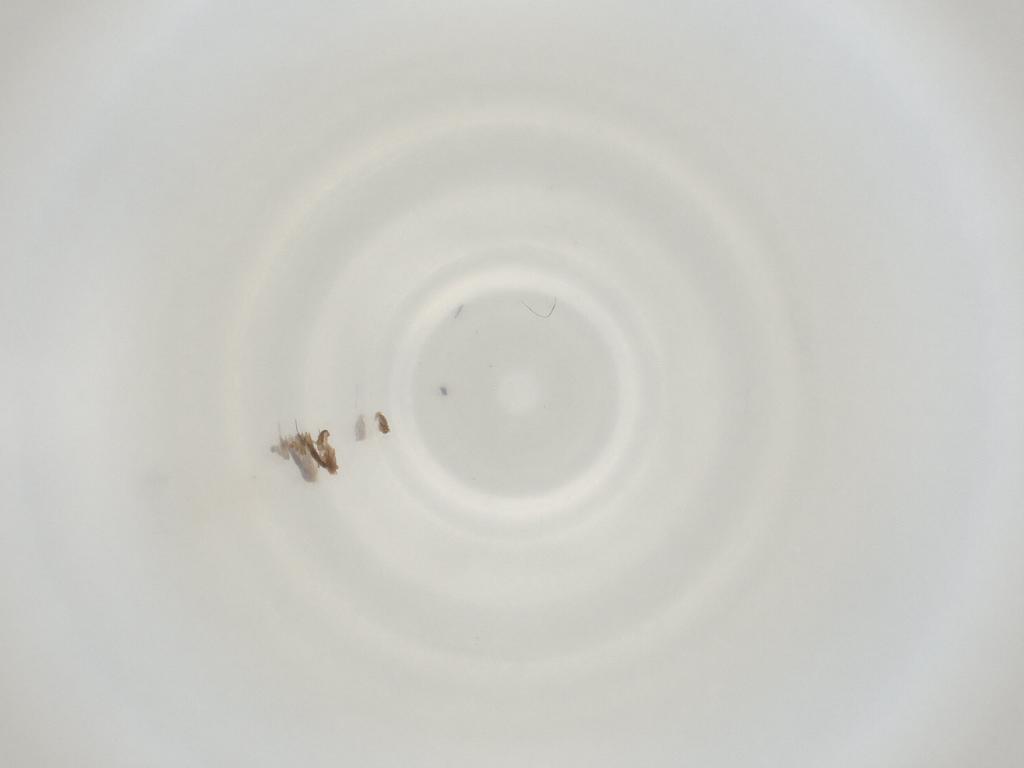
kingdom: Animalia
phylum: Arthropoda
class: Insecta
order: Diptera
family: Cecidomyiidae
